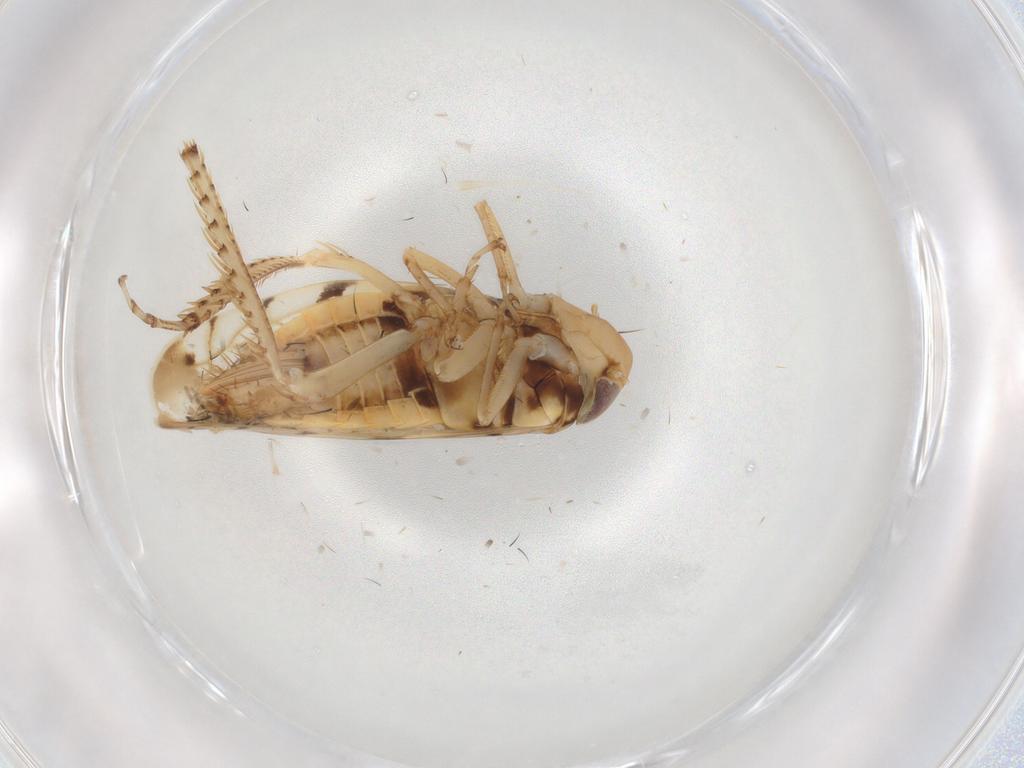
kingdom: Animalia
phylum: Arthropoda
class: Insecta
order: Hemiptera
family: Cicadellidae
